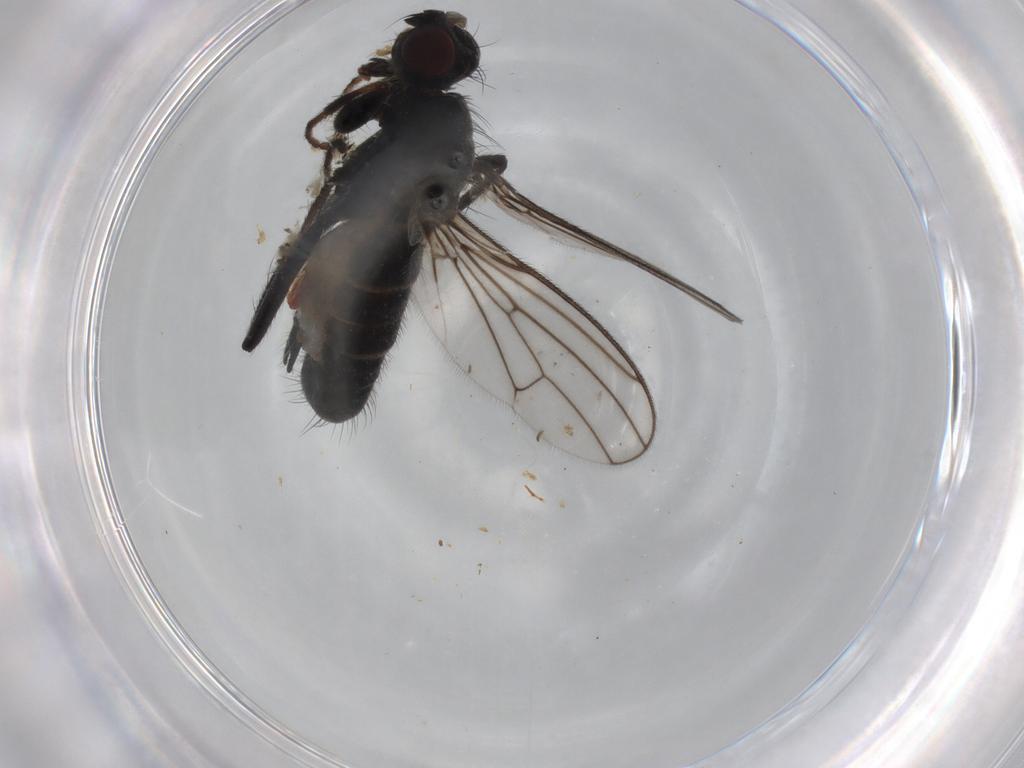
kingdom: Animalia
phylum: Arthropoda
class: Insecta
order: Diptera
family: Scathophagidae
